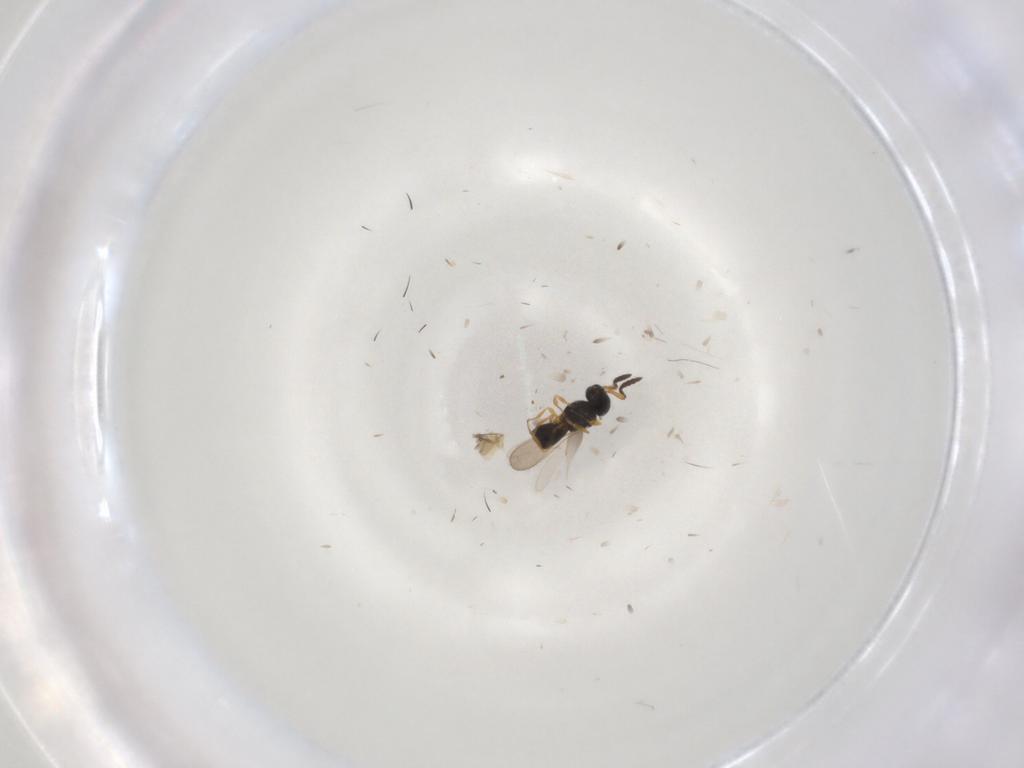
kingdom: Animalia
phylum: Arthropoda
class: Insecta
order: Hymenoptera
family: Scelionidae
